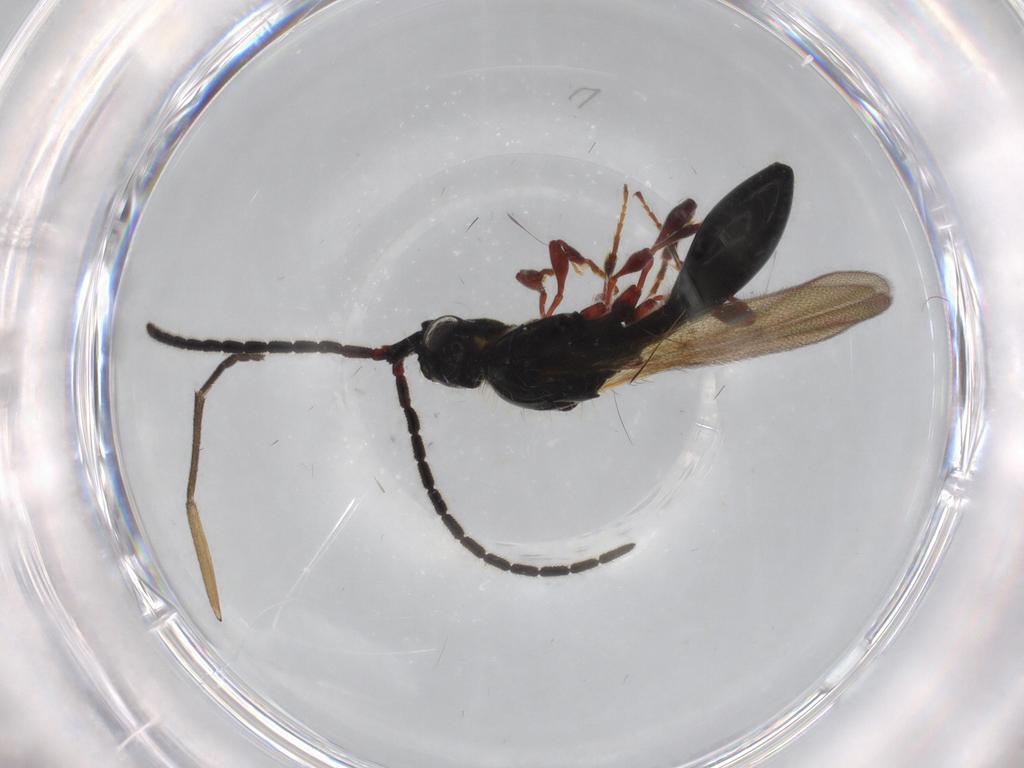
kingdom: Animalia
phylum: Arthropoda
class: Insecta
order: Hymenoptera
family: Diapriidae
